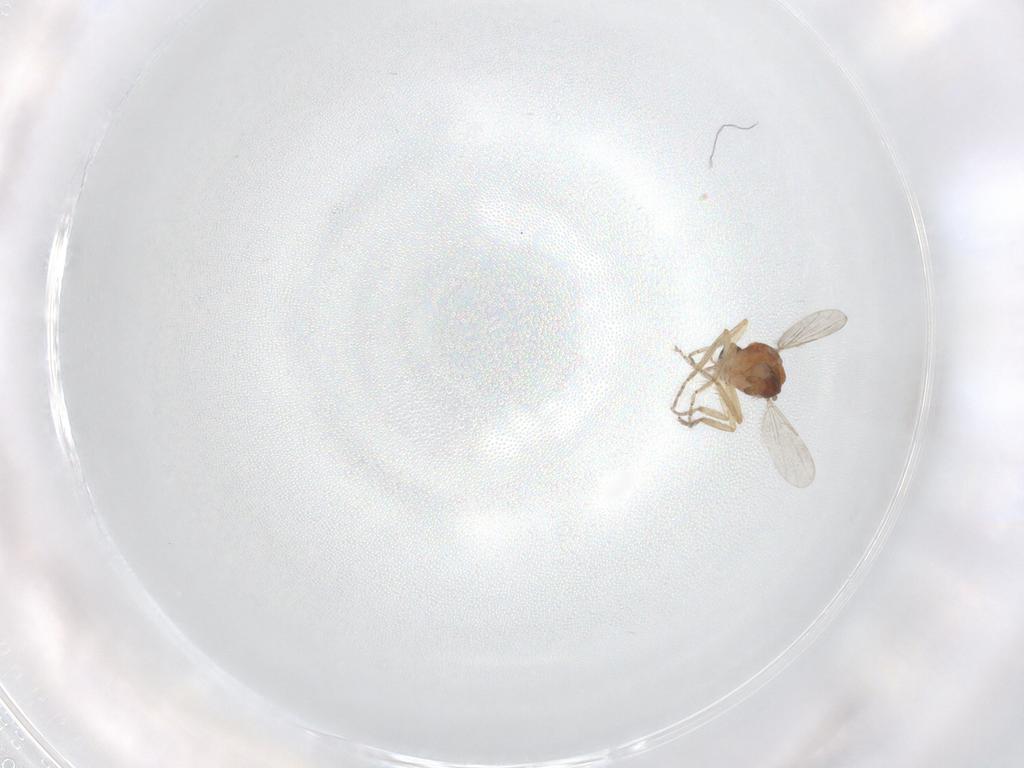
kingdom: Animalia
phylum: Arthropoda
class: Insecta
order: Diptera
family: Ceratopogonidae
